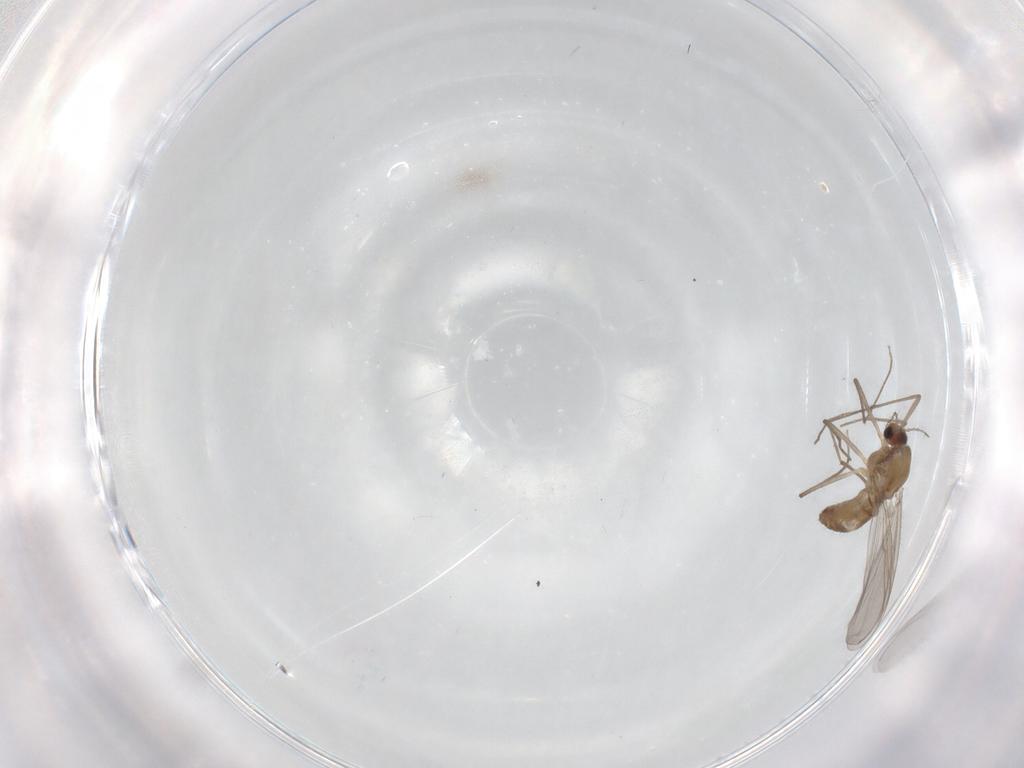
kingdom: Animalia
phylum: Arthropoda
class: Insecta
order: Diptera
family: Sciaridae
